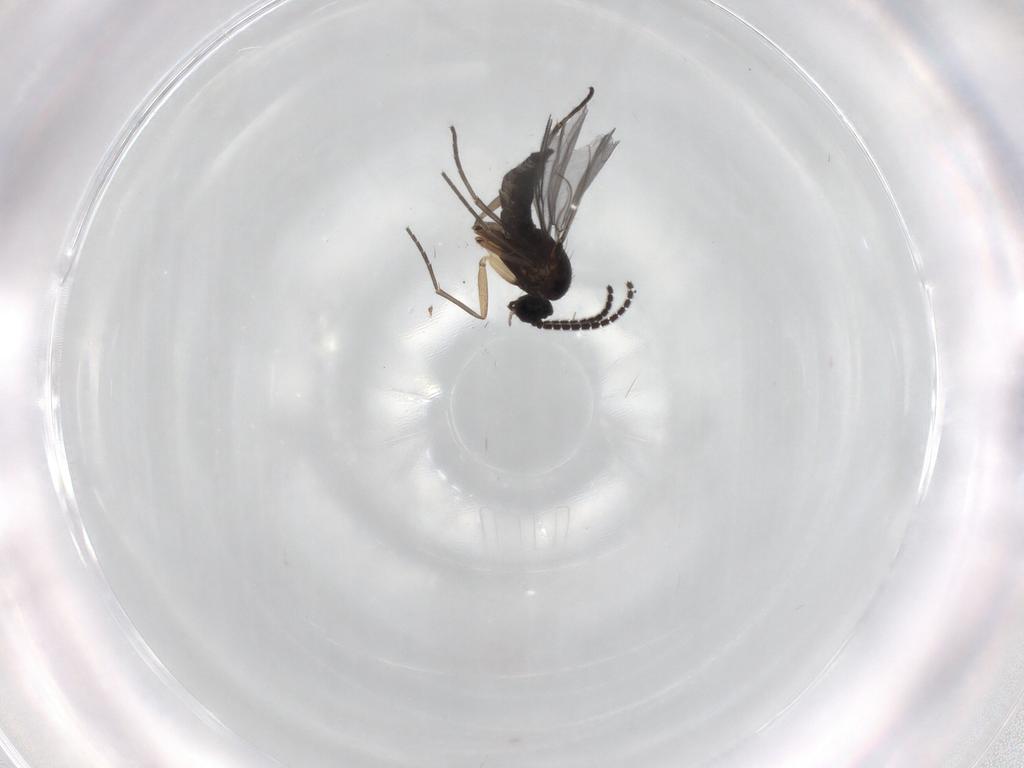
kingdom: Animalia
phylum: Arthropoda
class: Insecta
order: Diptera
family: Sciaridae
